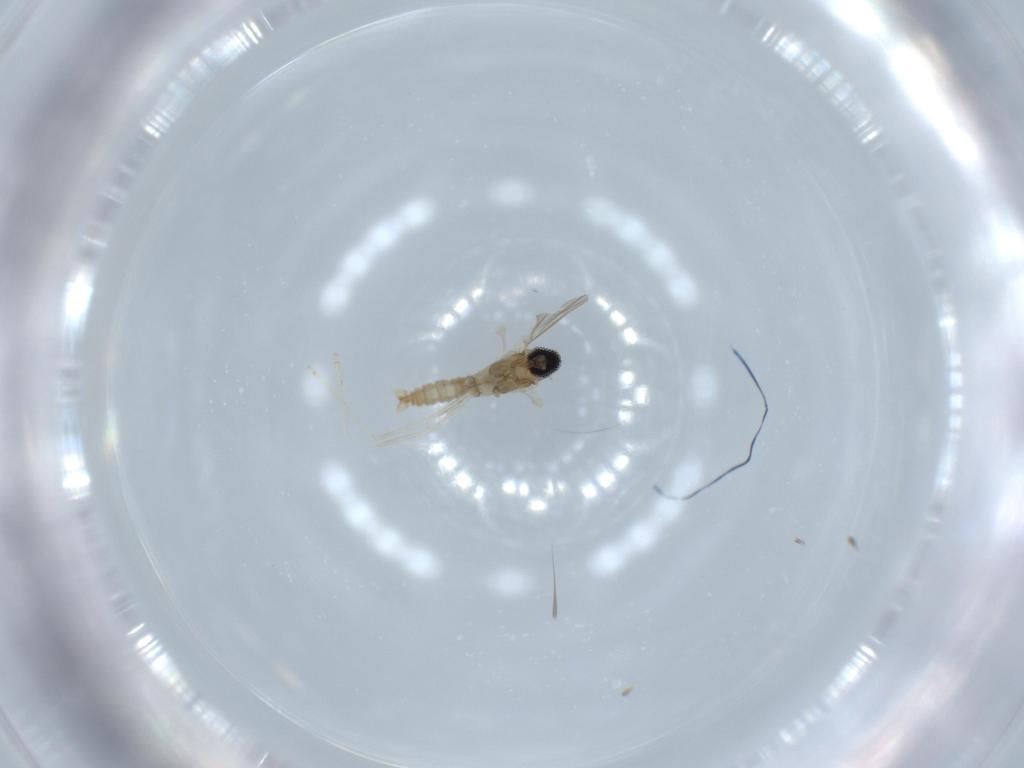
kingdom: Animalia
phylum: Arthropoda
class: Insecta
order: Diptera
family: Cecidomyiidae
